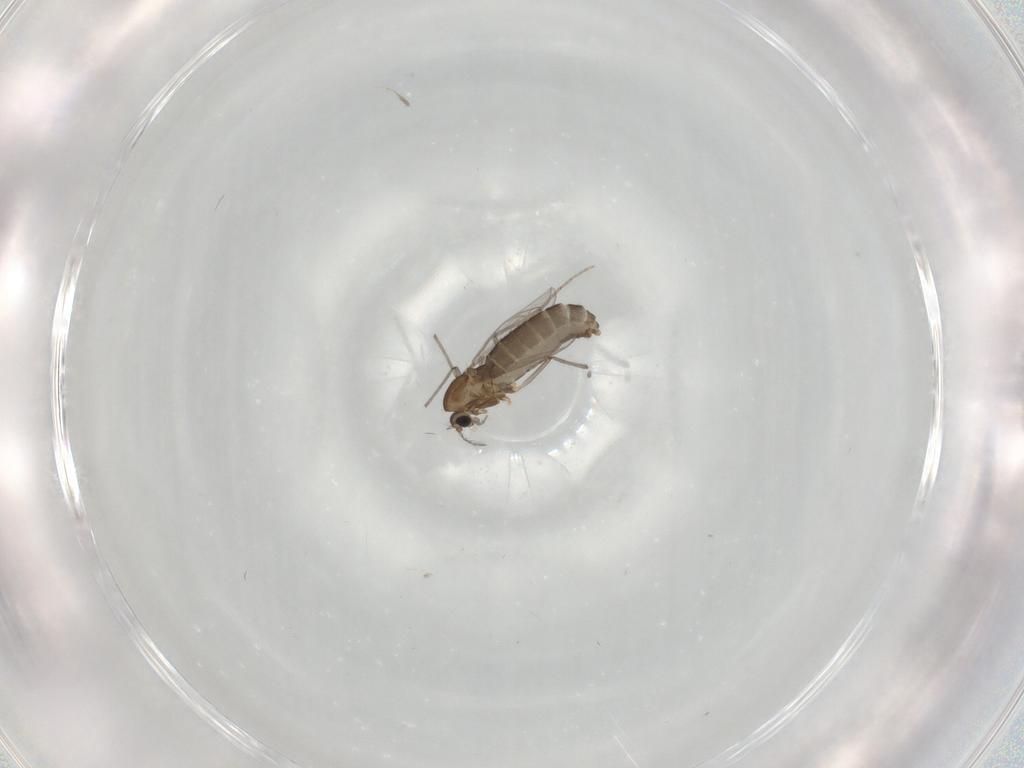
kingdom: Animalia
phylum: Arthropoda
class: Insecta
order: Diptera
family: Chironomidae
